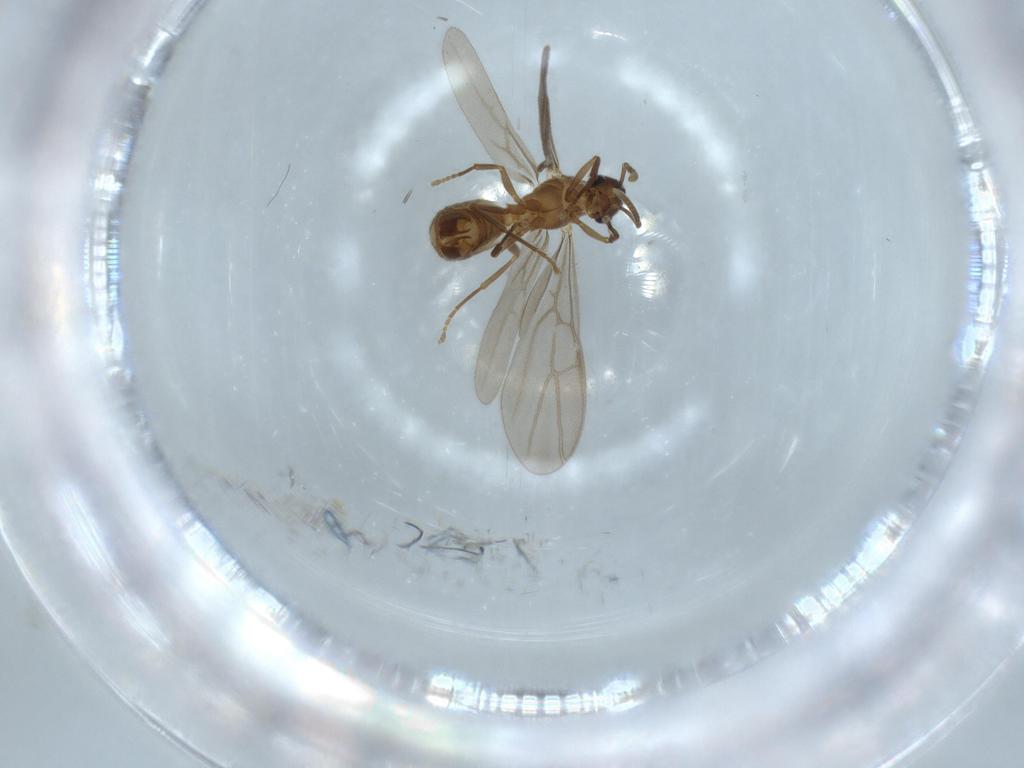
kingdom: Animalia
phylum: Arthropoda
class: Insecta
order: Hymenoptera
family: Formicidae
